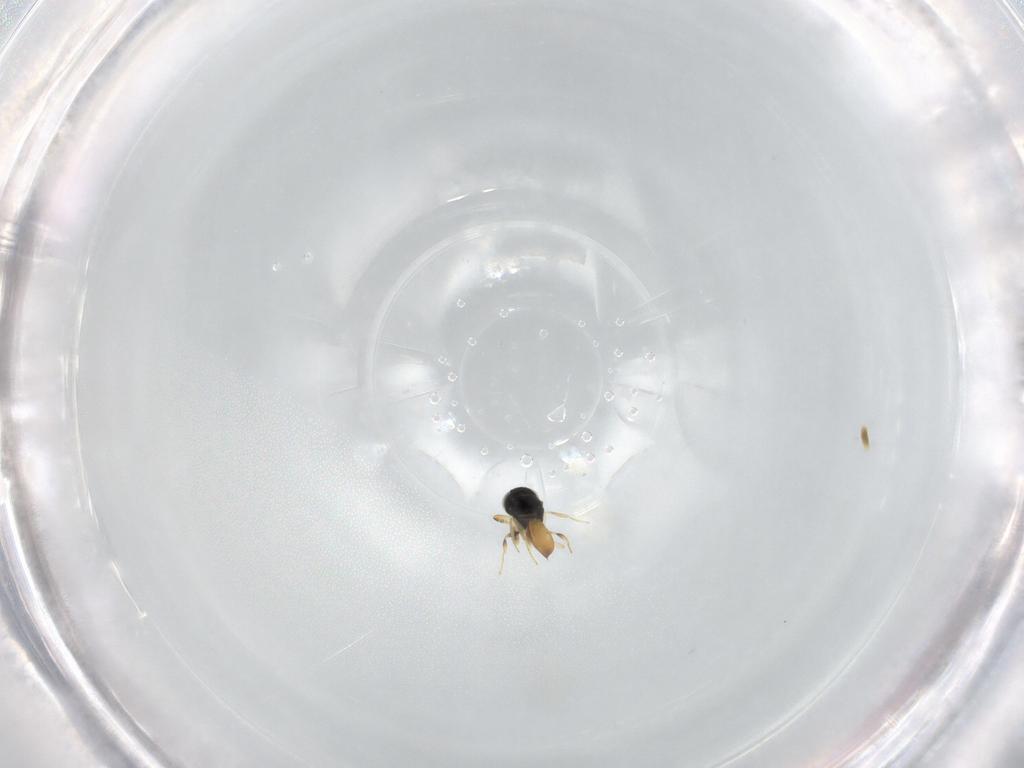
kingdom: Animalia
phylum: Arthropoda
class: Insecta
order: Hymenoptera
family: Scelionidae
